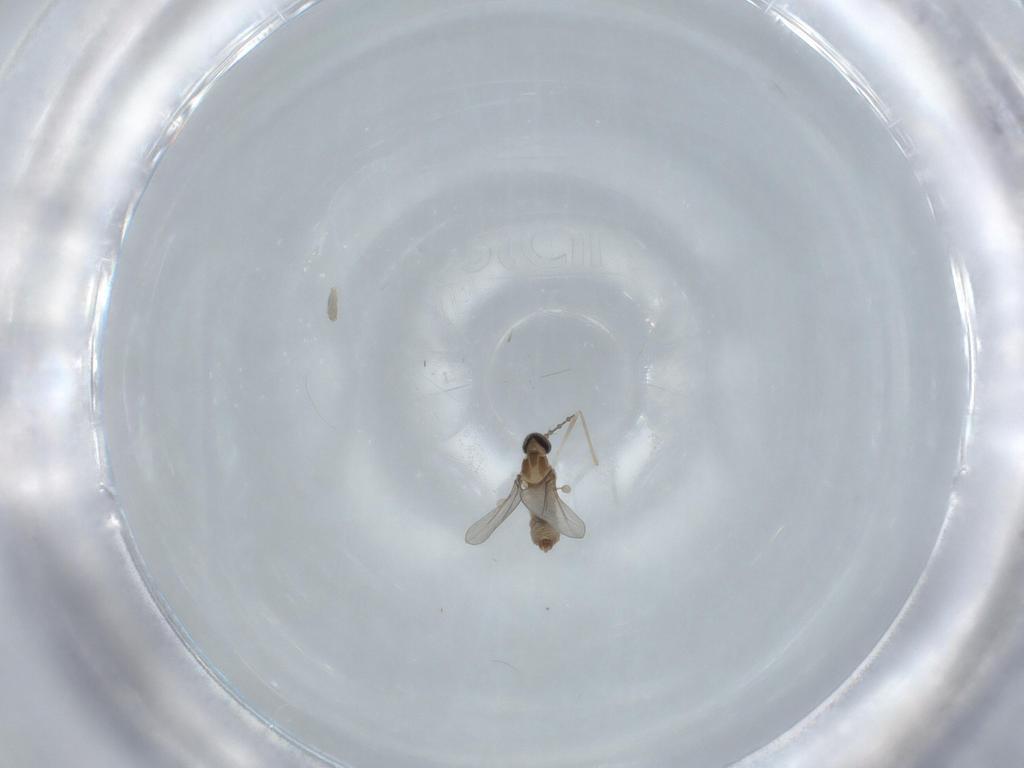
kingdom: Animalia
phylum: Arthropoda
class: Insecta
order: Diptera
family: Cecidomyiidae
